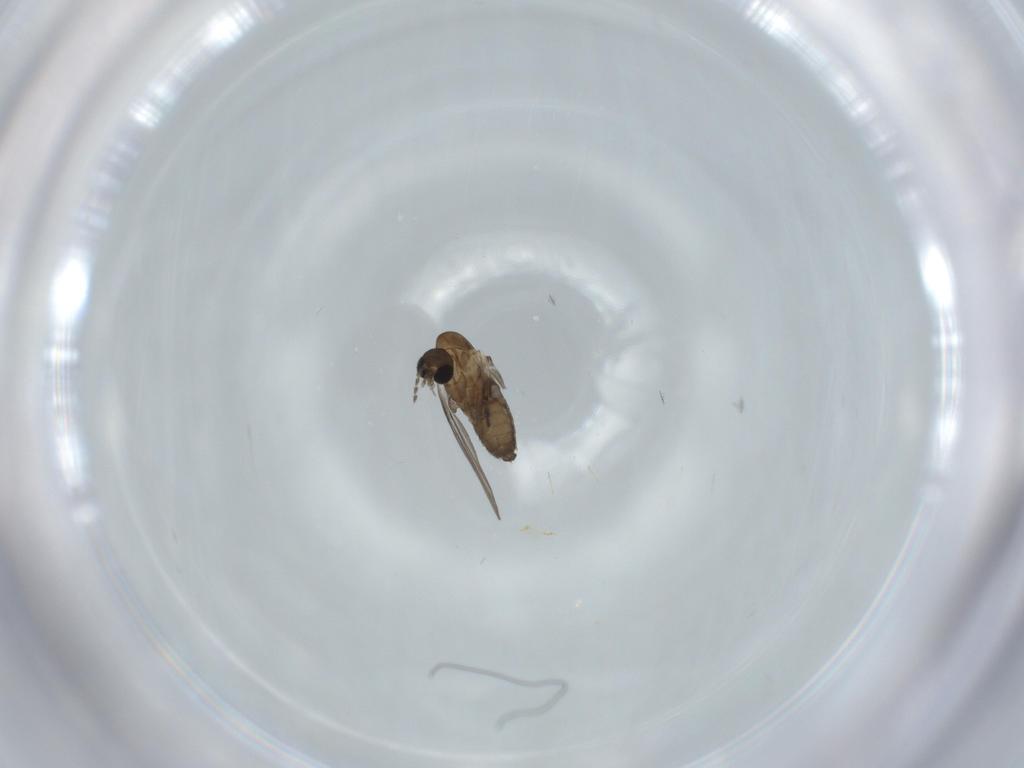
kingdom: Animalia
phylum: Arthropoda
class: Insecta
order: Diptera
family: Psychodidae
